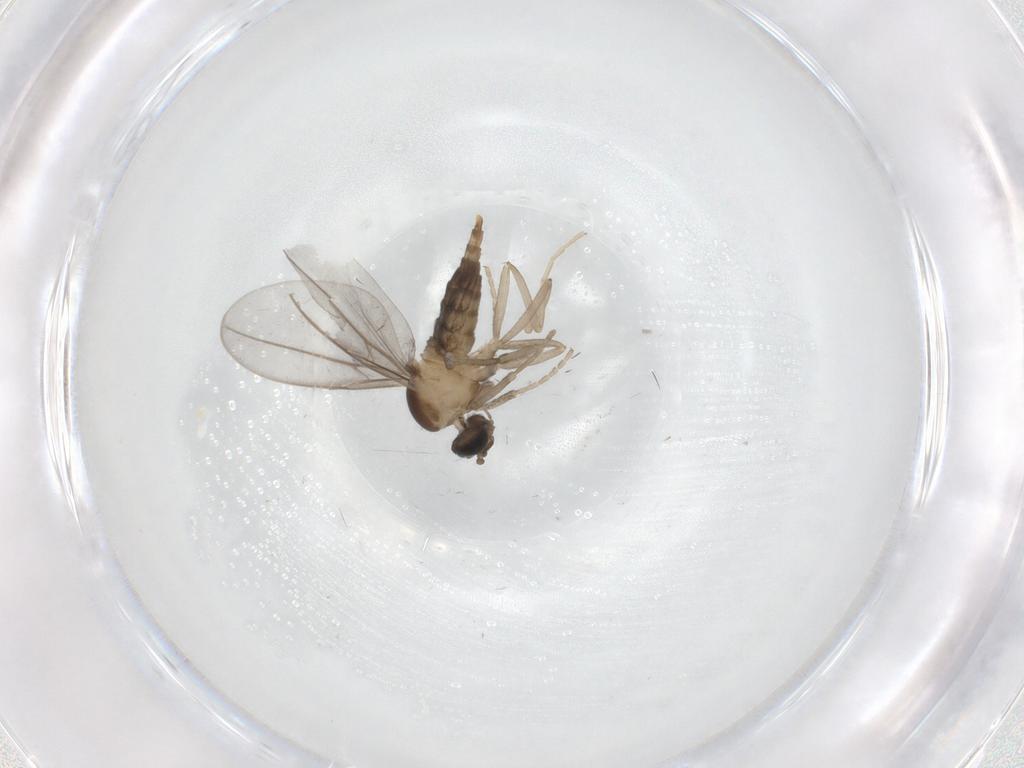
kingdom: Animalia
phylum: Arthropoda
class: Insecta
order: Diptera
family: Cecidomyiidae
